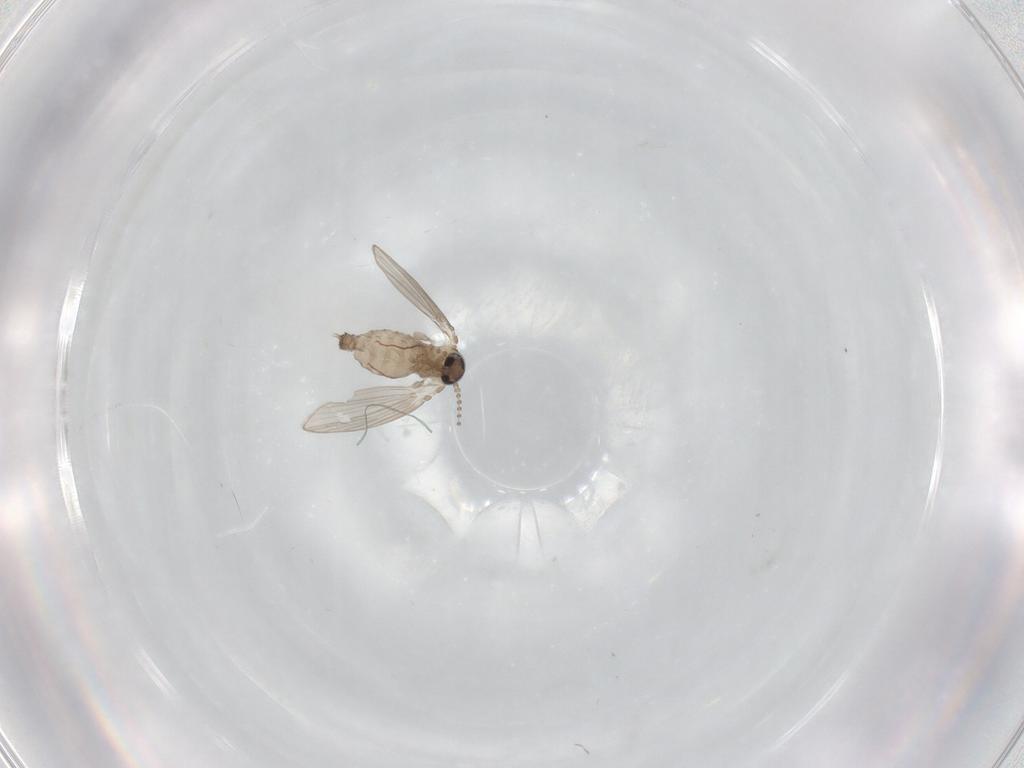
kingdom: Animalia
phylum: Arthropoda
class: Insecta
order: Diptera
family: Psychodidae
